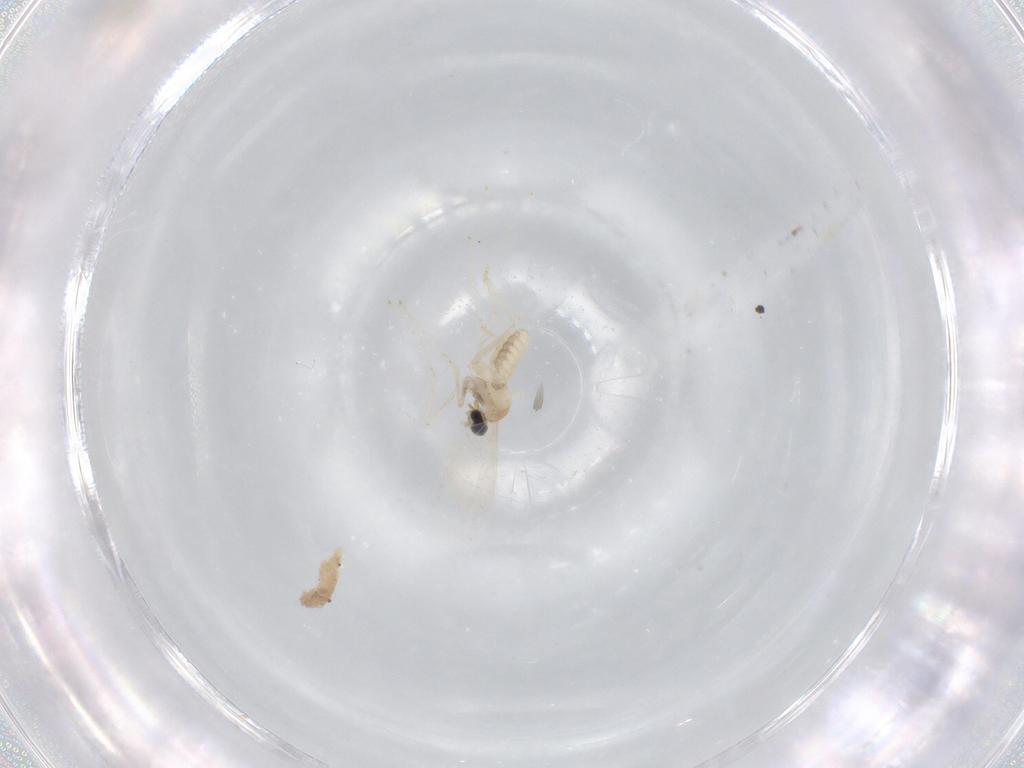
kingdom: Animalia
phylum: Arthropoda
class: Insecta
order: Diptera
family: Cecidomyiidae
